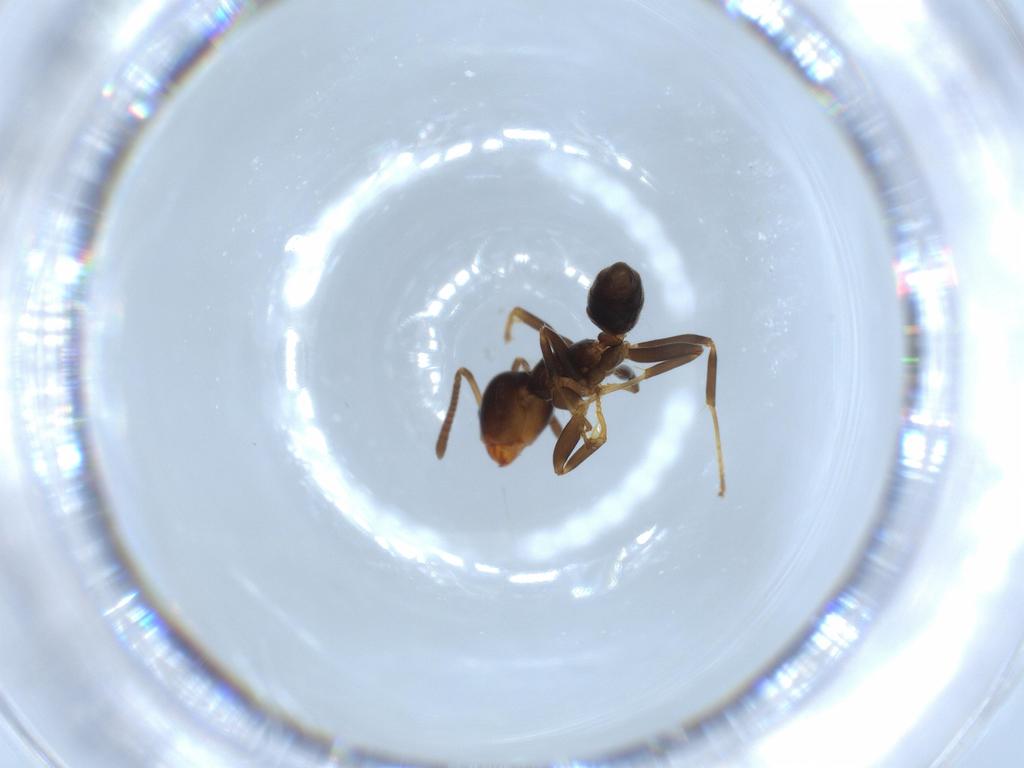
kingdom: Animalia
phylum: Arthropoda
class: Insecta
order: Hymenoptera
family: Formicidae
